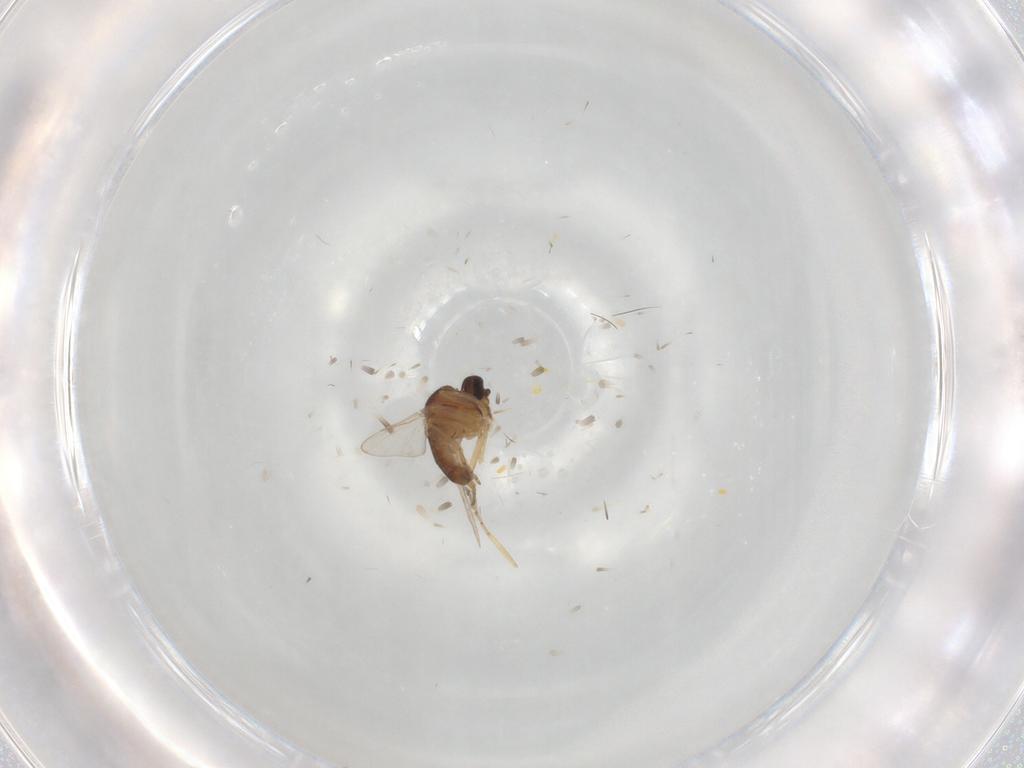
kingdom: Animalia
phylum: Arthropoda
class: Insecta
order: Diptera
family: Ceratopogonidae
